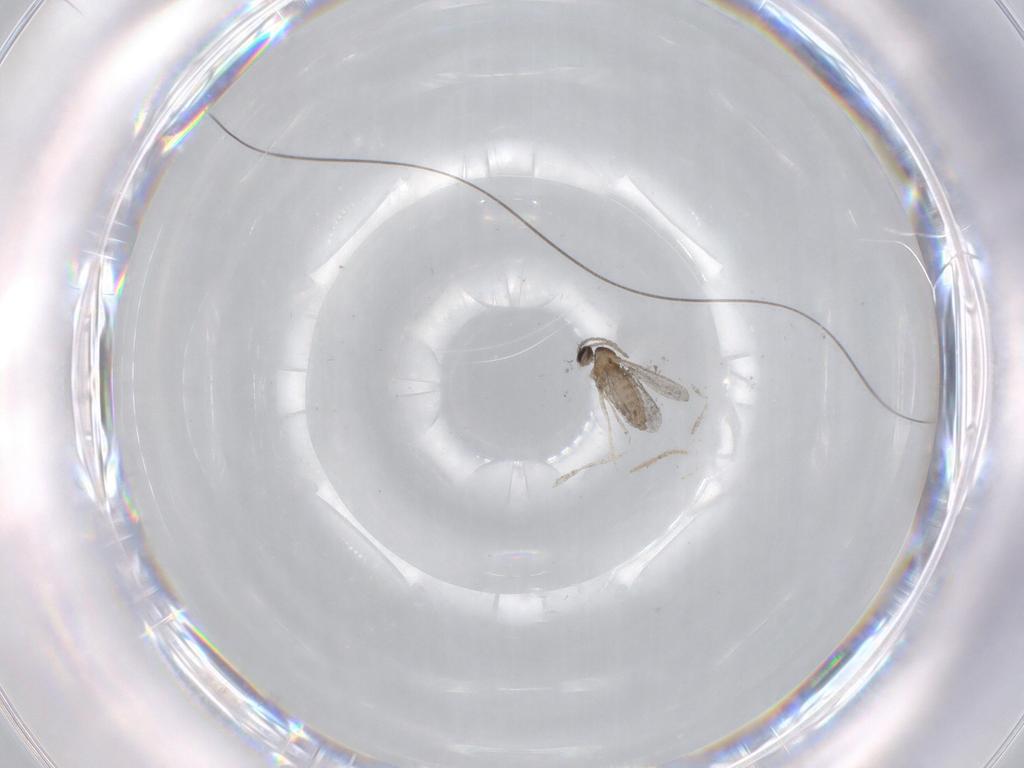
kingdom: Animalia
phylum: Arthropoda
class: Insecta
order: Diptera
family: Cecidomyiidae
